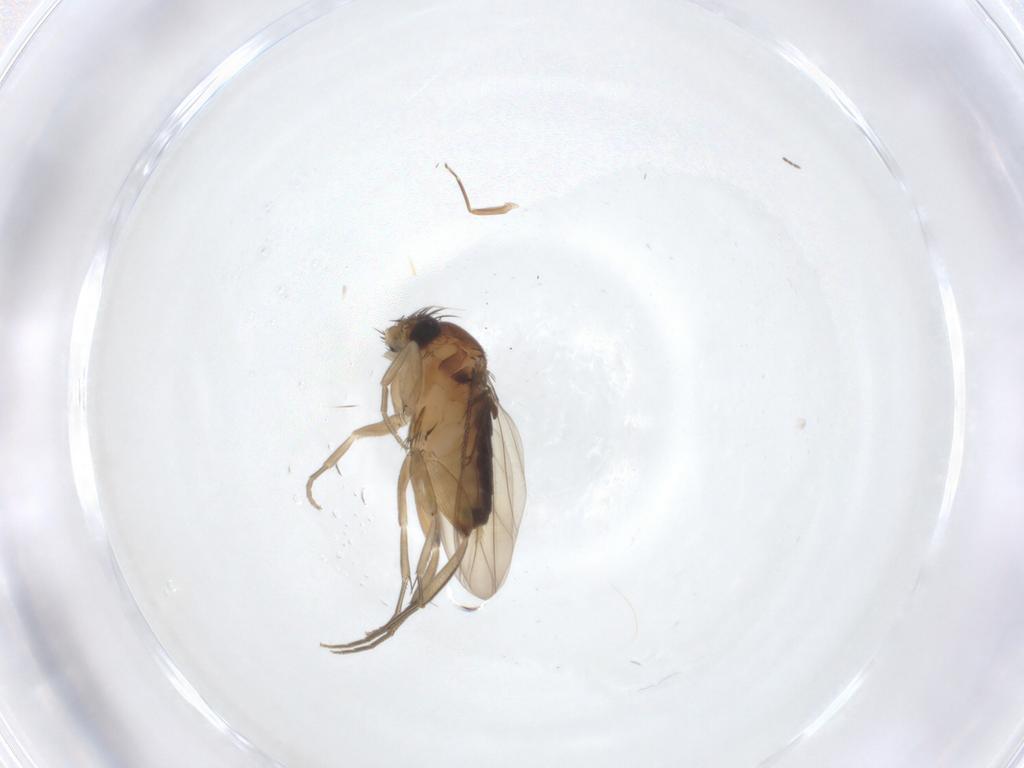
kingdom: Animalia
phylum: Arthropoda
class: Insecta
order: Diptera
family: Phoridae
